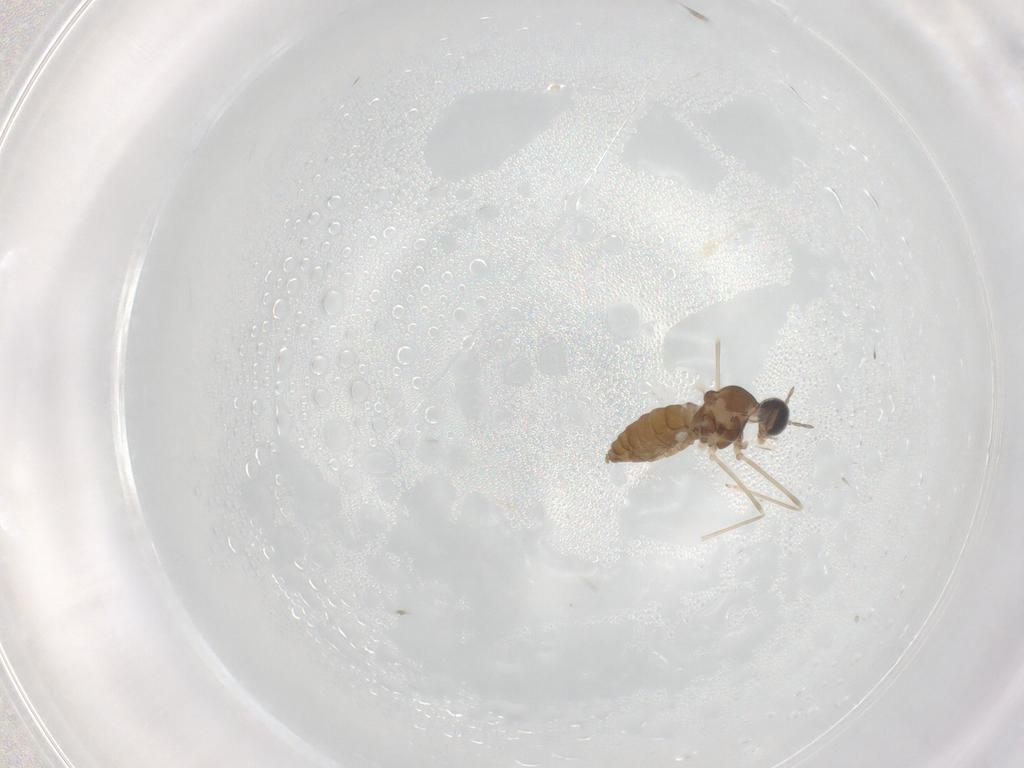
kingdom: Animalia
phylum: Arthropoda
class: Insecta
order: Diptera
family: Cecidomyiidae
